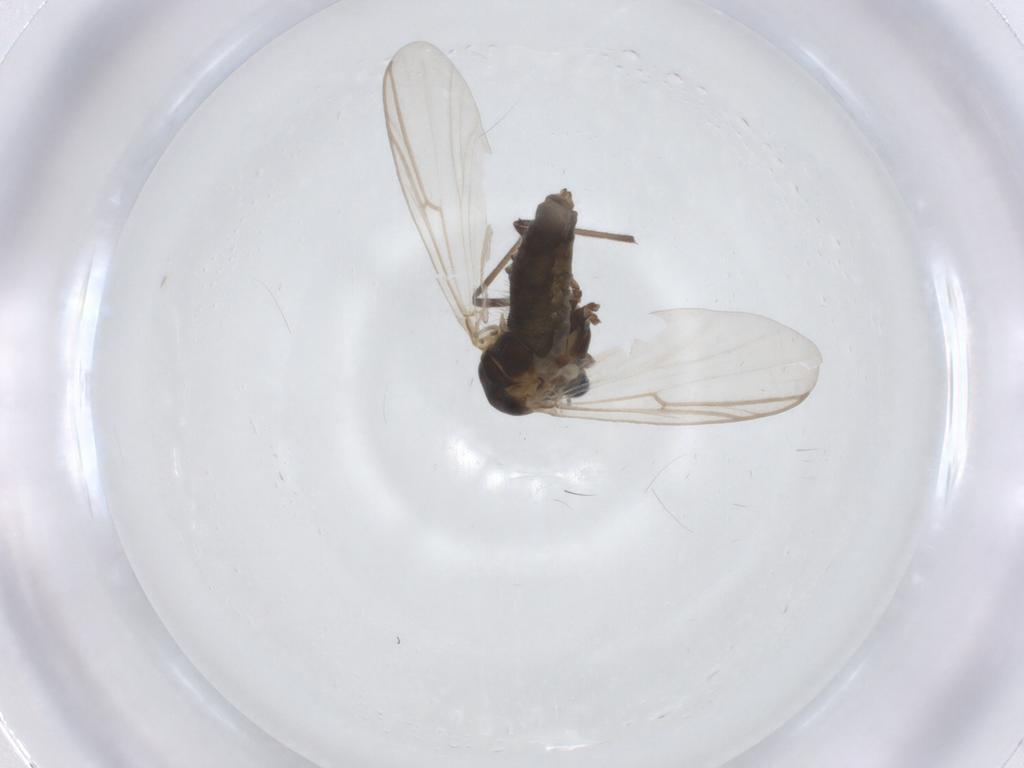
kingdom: Animalia
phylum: Arthropoda
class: Insecta
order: Diptera
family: Chironomidae
